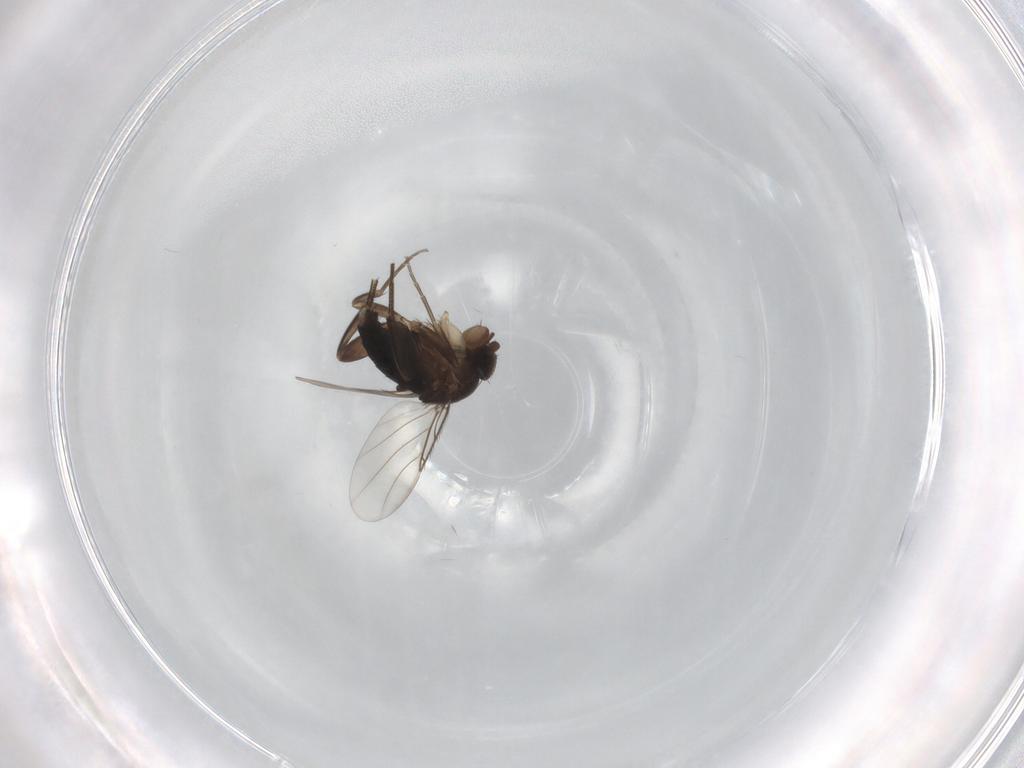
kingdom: Animalia
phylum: Arthropoda
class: Insecta
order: Diptera
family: Phoridae
